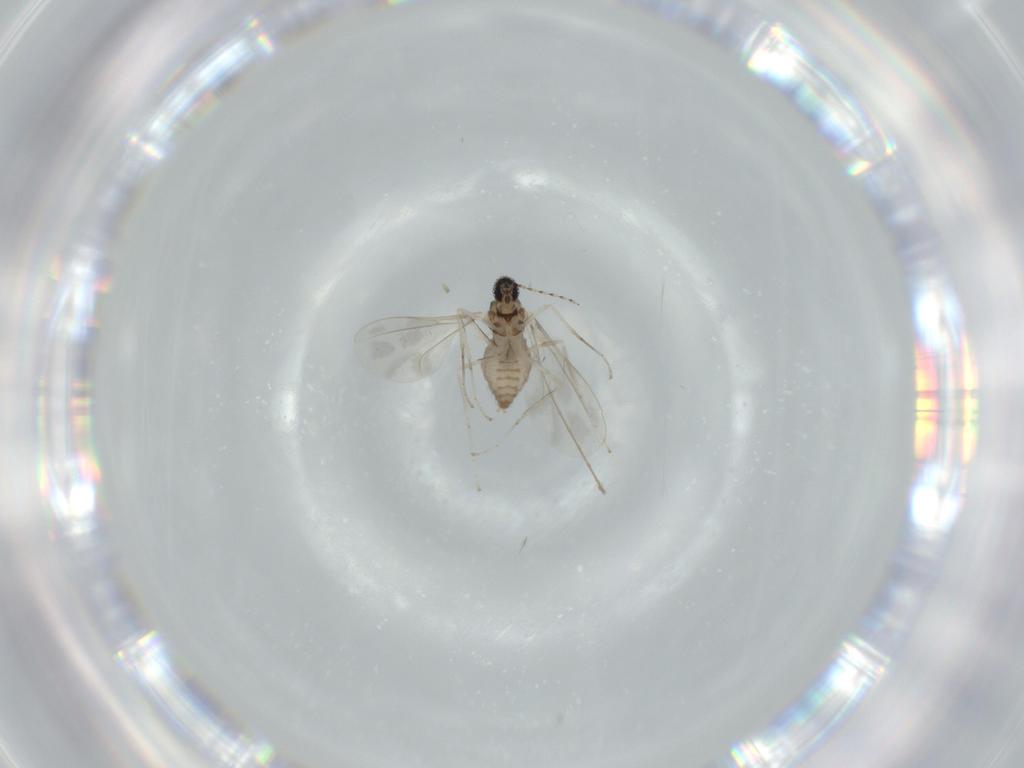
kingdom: Animalia
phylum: Arthropoda
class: Insecta
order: Diptera
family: Cecidomyiidae
